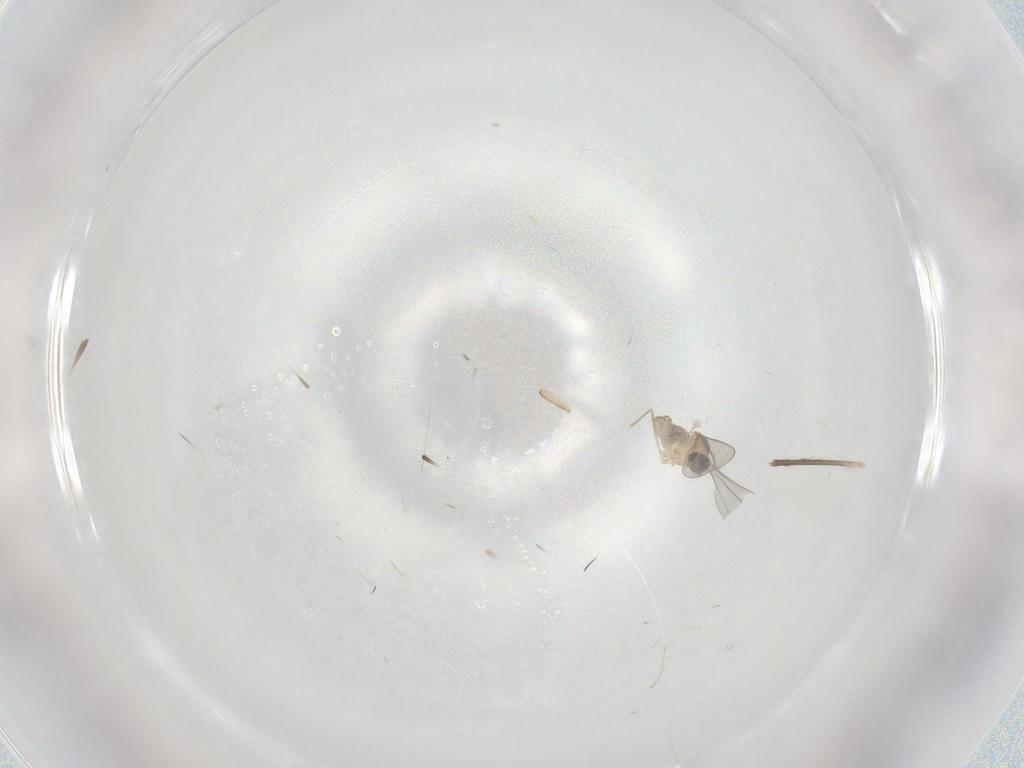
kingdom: Animalia
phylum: Arthropoda
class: Insecta
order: Diptera
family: Cecidomyiidae
